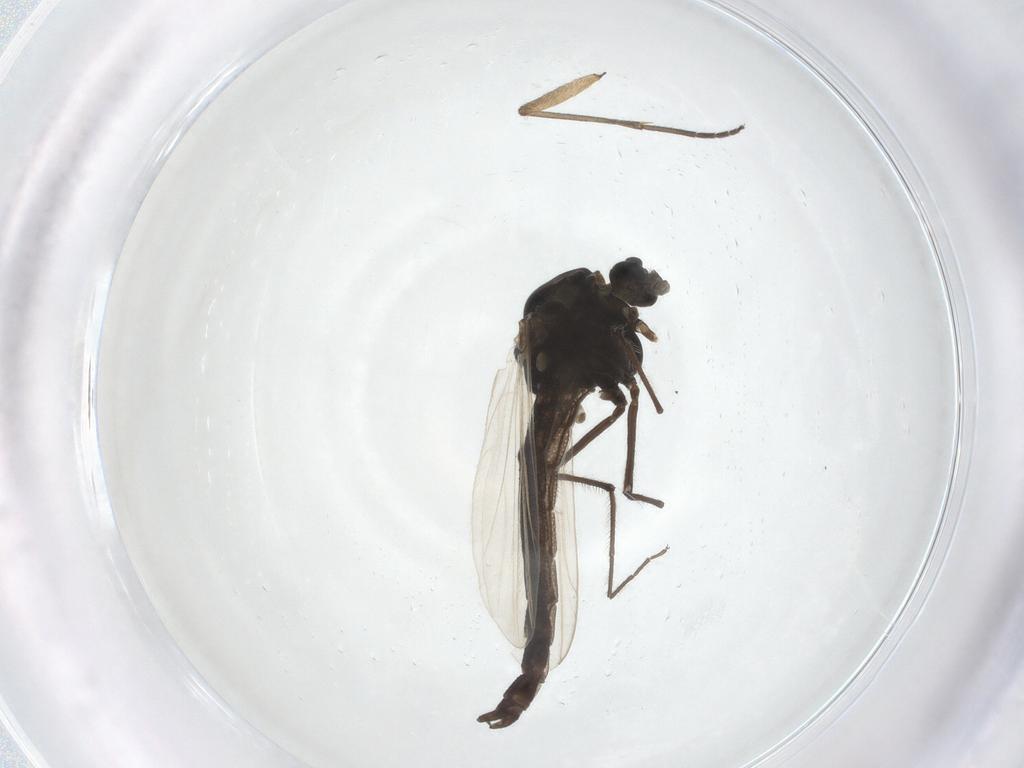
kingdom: Animalia
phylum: Arthropoda
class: Insecta
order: Diptera
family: Chironomidae
